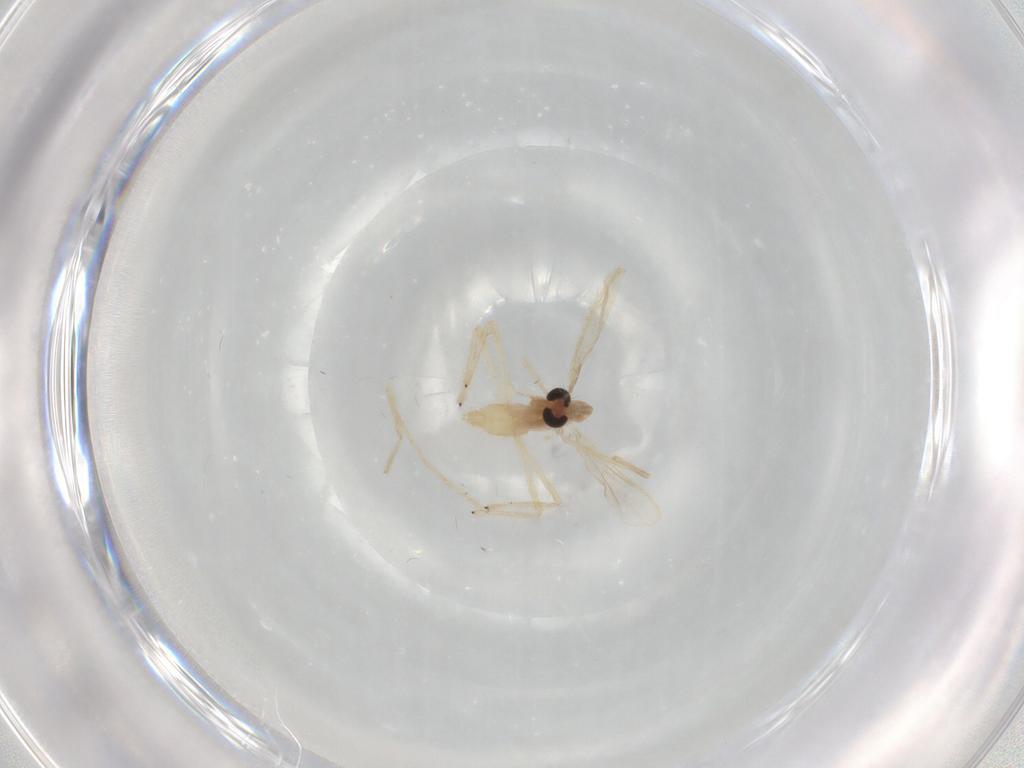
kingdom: Animalia
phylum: Arthropoda
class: Insecta
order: Diptera
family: Chironomidae
